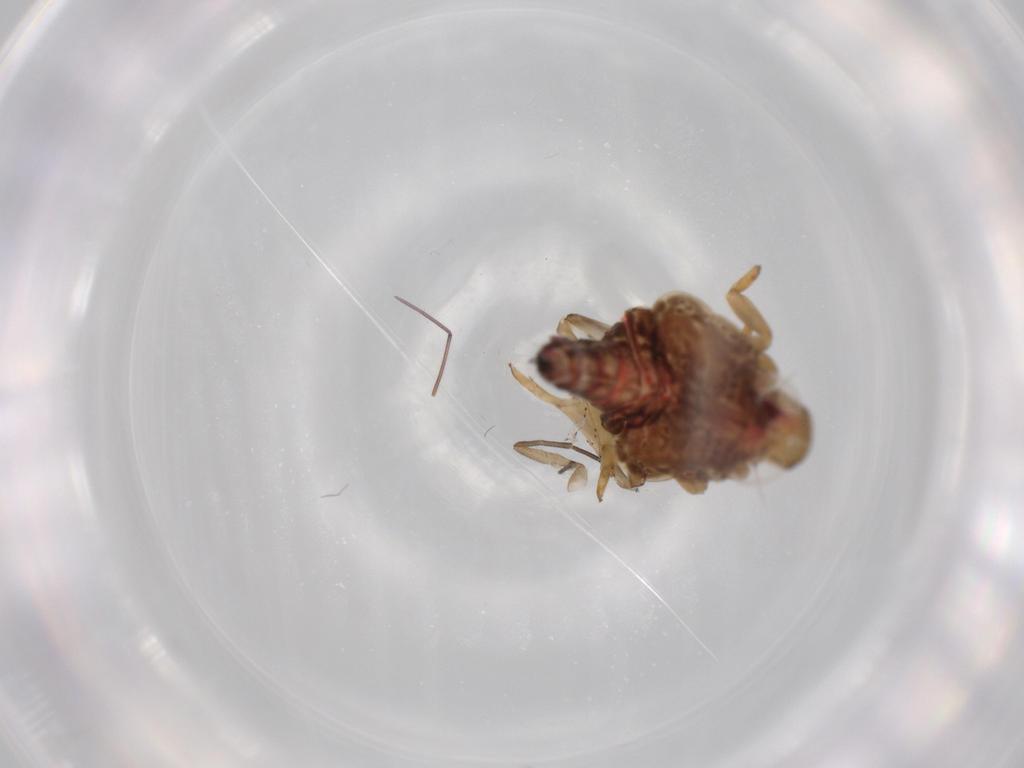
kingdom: Animalia
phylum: Arthropoda
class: Insecta
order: Hemiptera
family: Issidae
